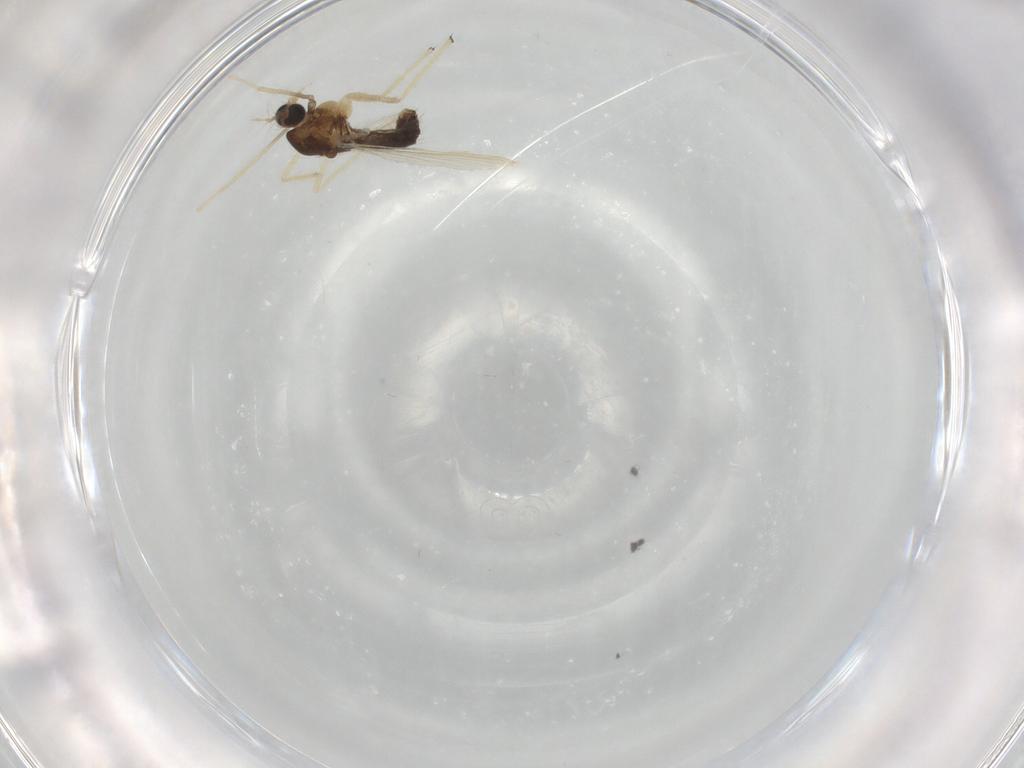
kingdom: Animalia
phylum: Arthropoda
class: Insecta
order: Diptera
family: Chironomidae
